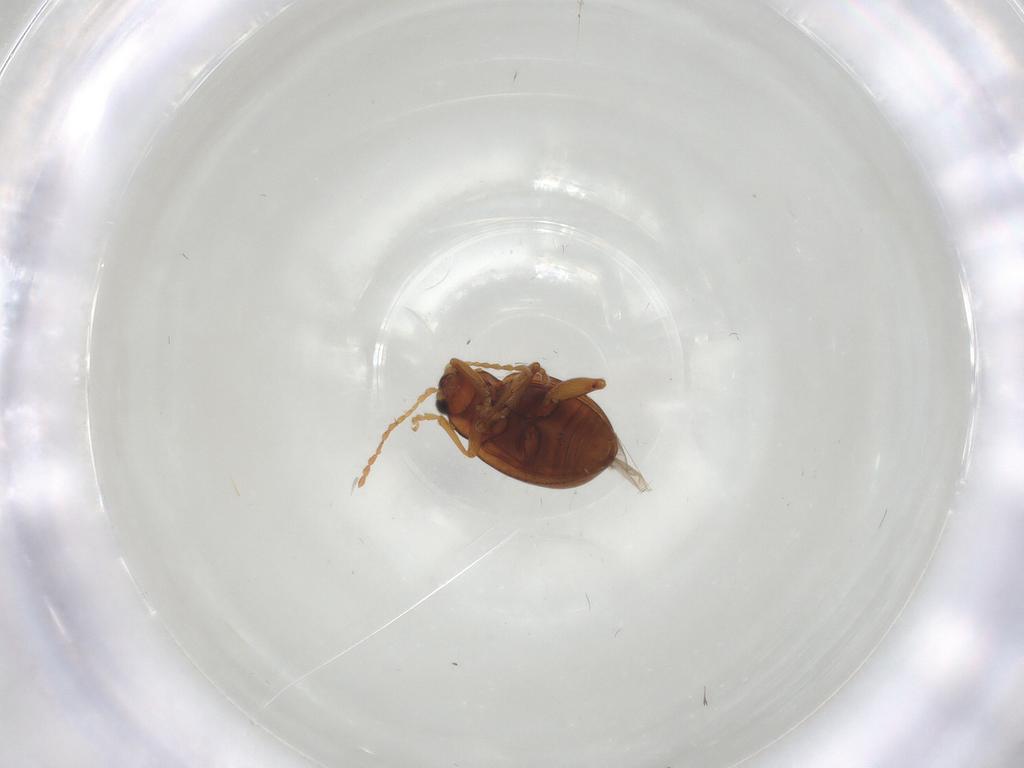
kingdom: Animalia
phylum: Arthropoda
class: Insecta
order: Coleoptera
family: Chrysomelidae
